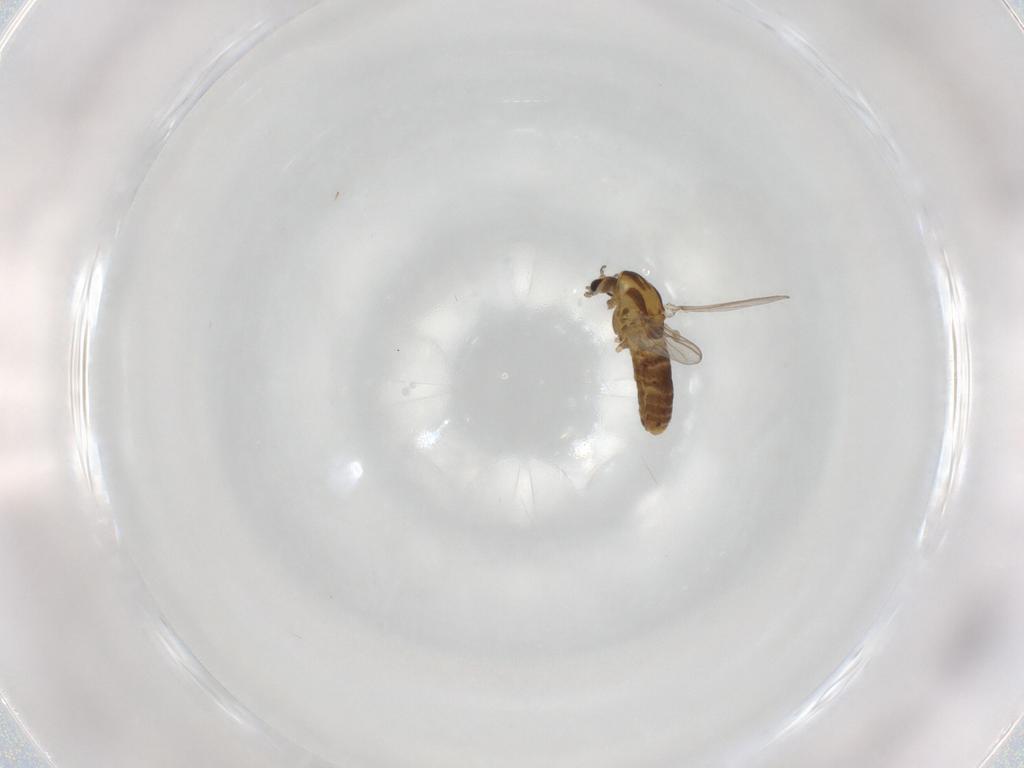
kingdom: Animalia
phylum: Arthropoda
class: Insecta
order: Diptera
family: Chironomidae
